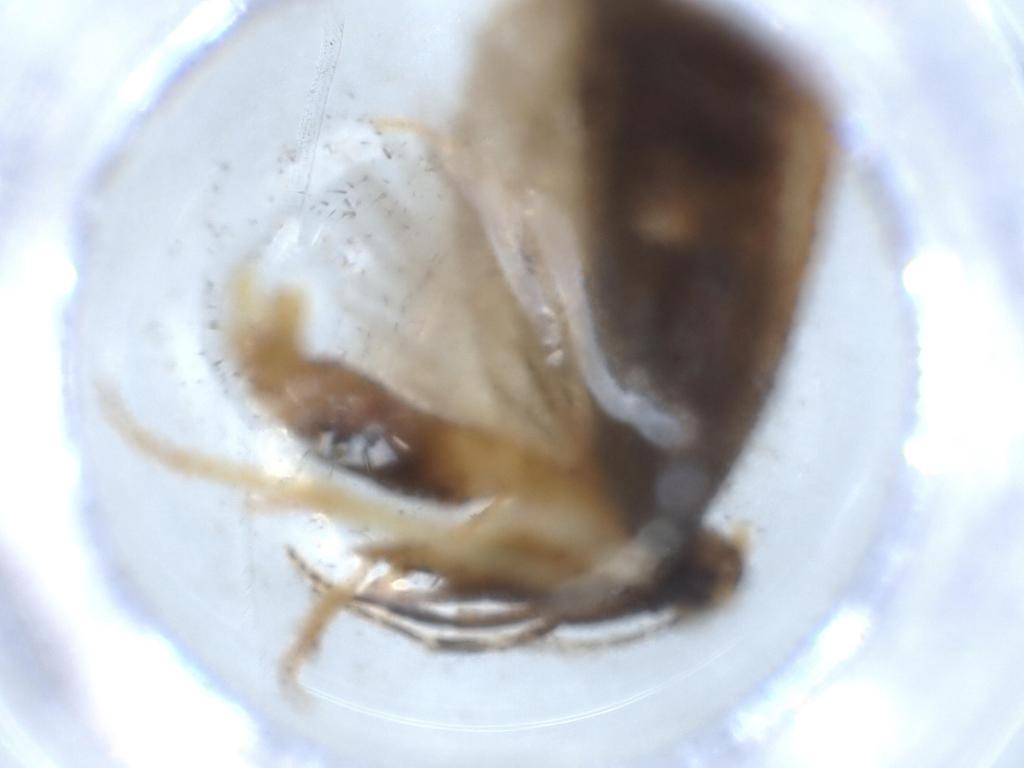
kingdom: Animalia
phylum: Arthropoda
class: Insecta
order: Lepidoptera
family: Lecithoceridae
